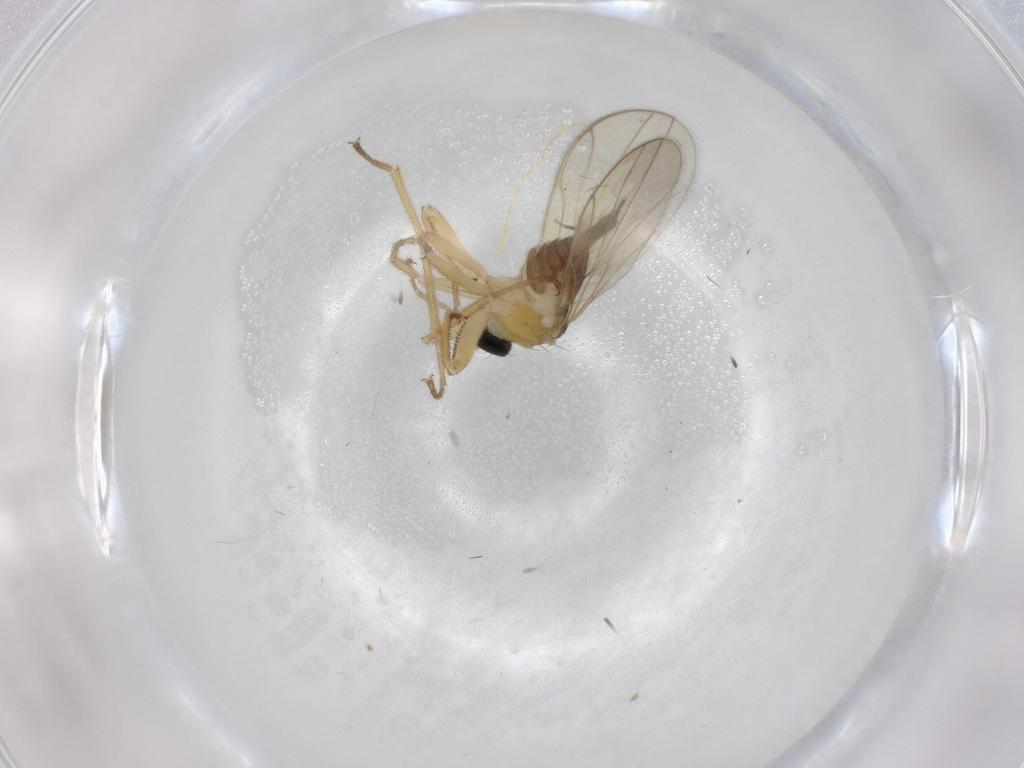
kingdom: Animalia
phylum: Arthropoda
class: Insecta
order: Diptera
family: Hybotidae
